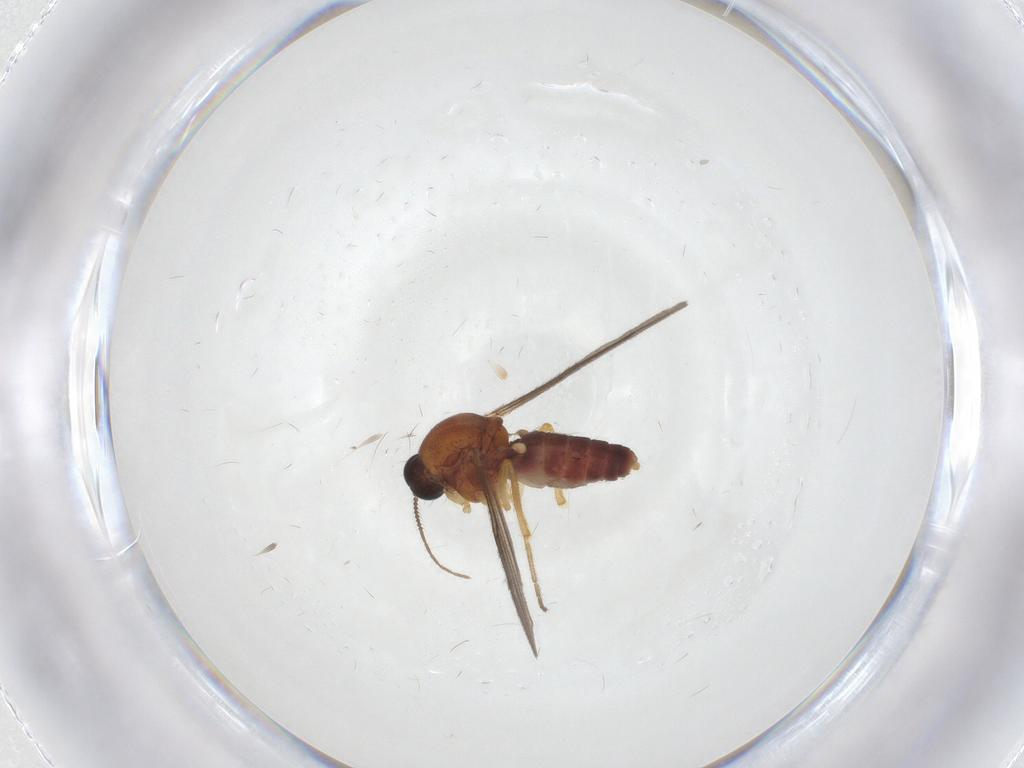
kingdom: Animalia
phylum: Arthropoda
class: Insecta
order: Diptera
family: Ceratopogonidae
